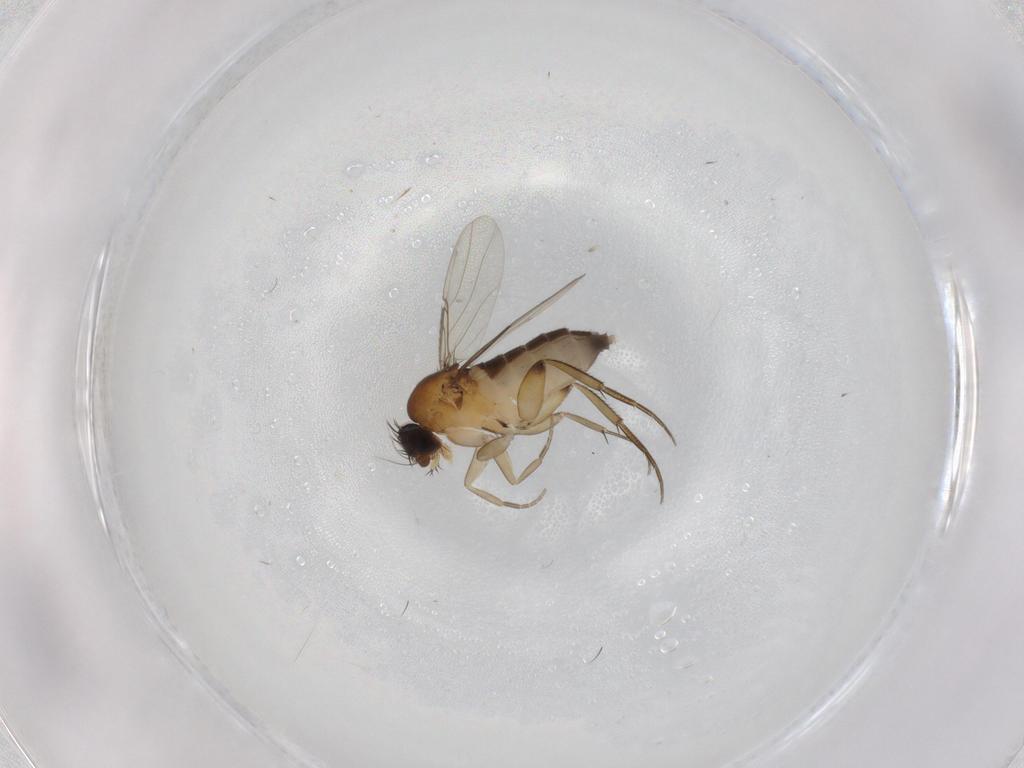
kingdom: Animalia
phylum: Arthropoda
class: Insecta
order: Diptera
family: Phoridae
